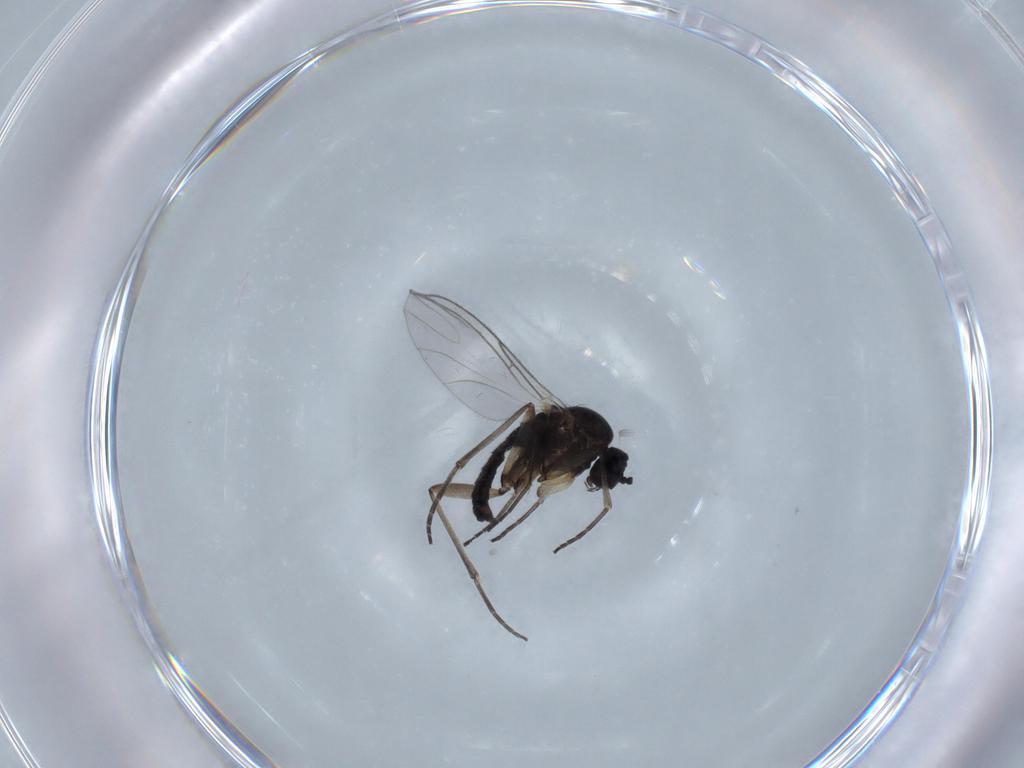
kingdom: Animalia
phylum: Arthropoda
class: Insecta
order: Diptera
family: Sciaridae
